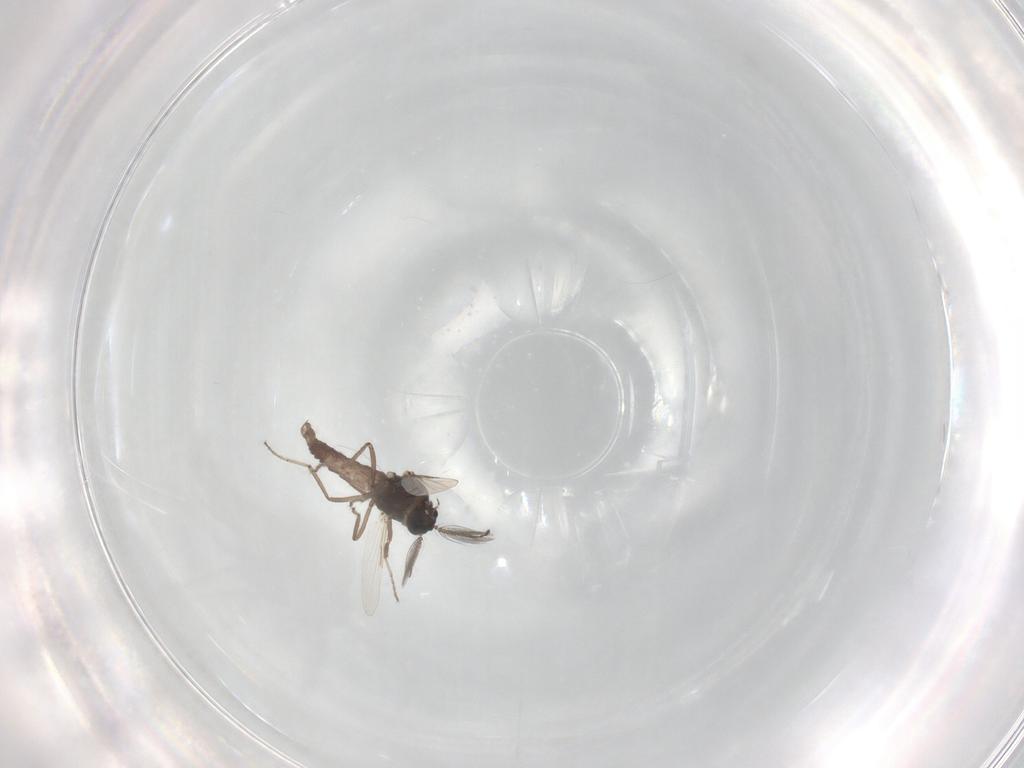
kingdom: Animalia
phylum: Arthropoda
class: Insecta
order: Diptera
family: Ceratopogonidae
